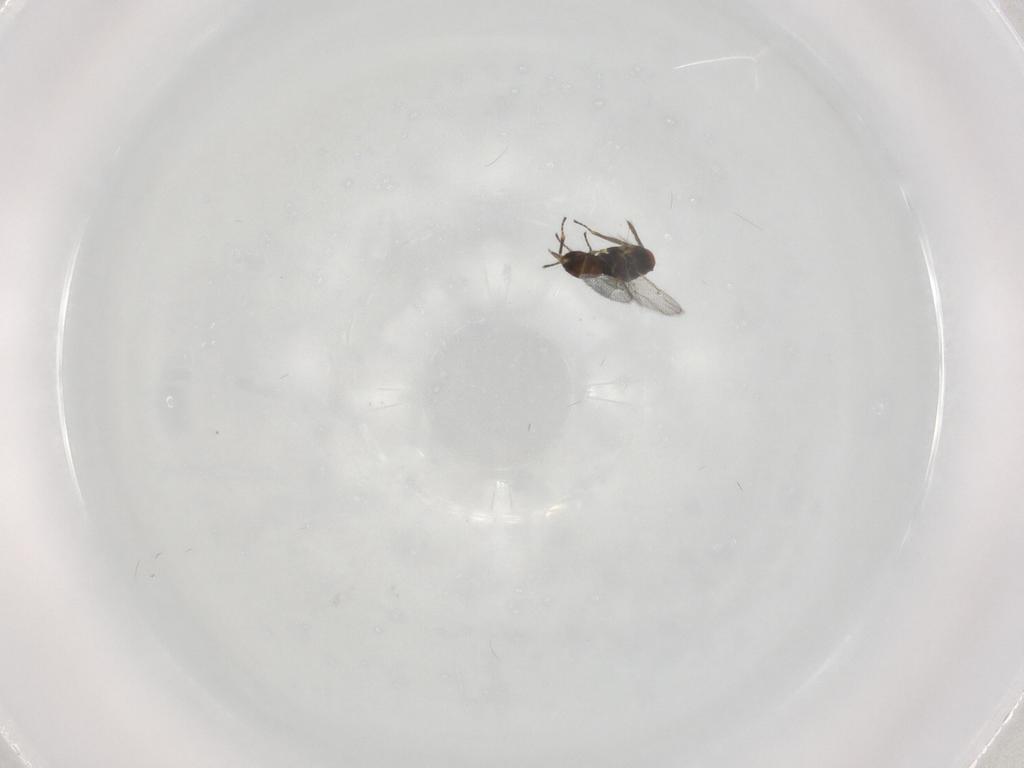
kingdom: Animalia
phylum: Arthropoda
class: Insecta
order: Hymenoptera
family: Eulophidae
